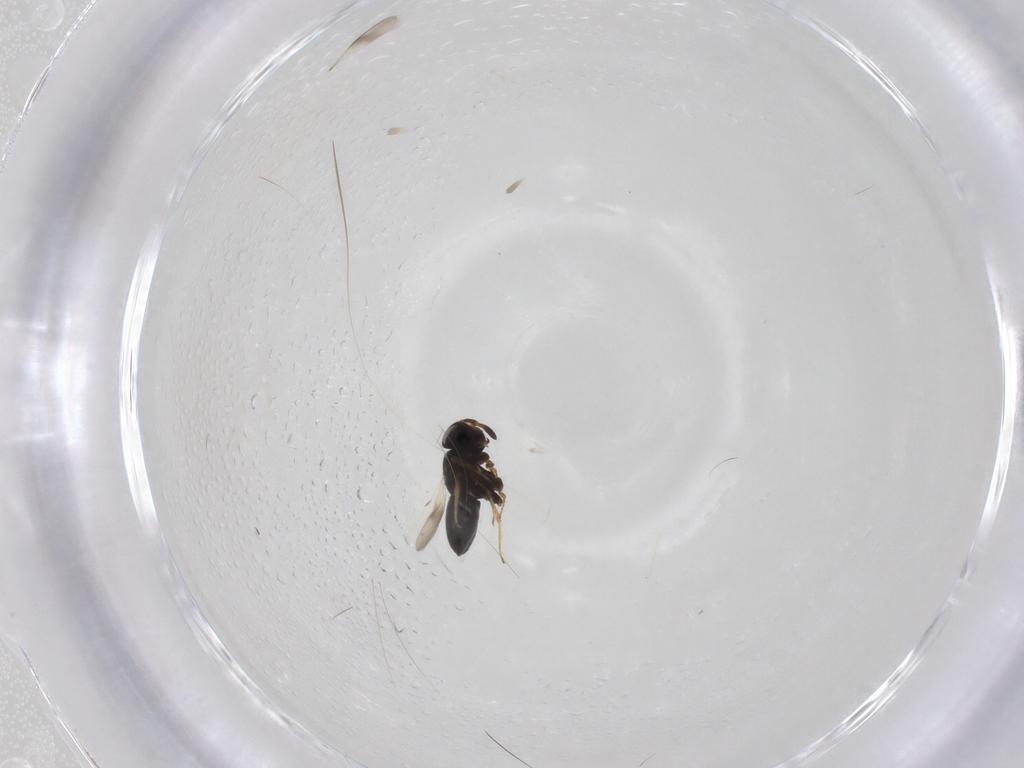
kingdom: Animalia
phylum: Arthropoda
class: Insecta
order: Hymenoptera
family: Scelionidae
